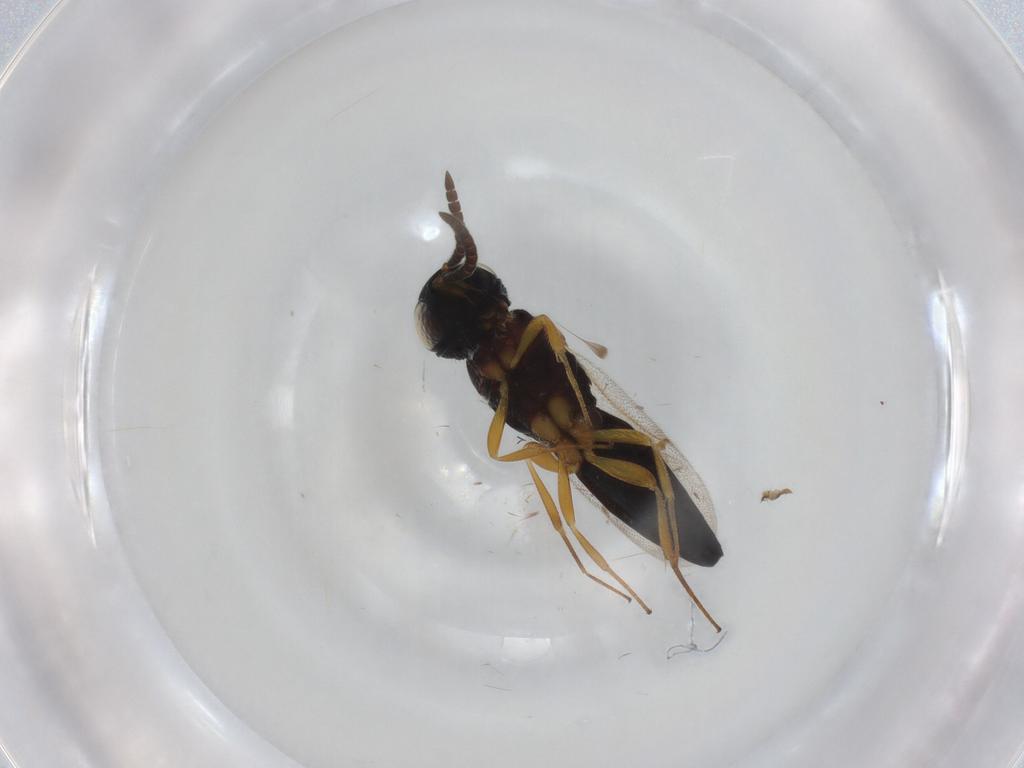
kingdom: Animalia
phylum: Arthropoda
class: Insecta
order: Hymenoptera
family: Scelionidae
